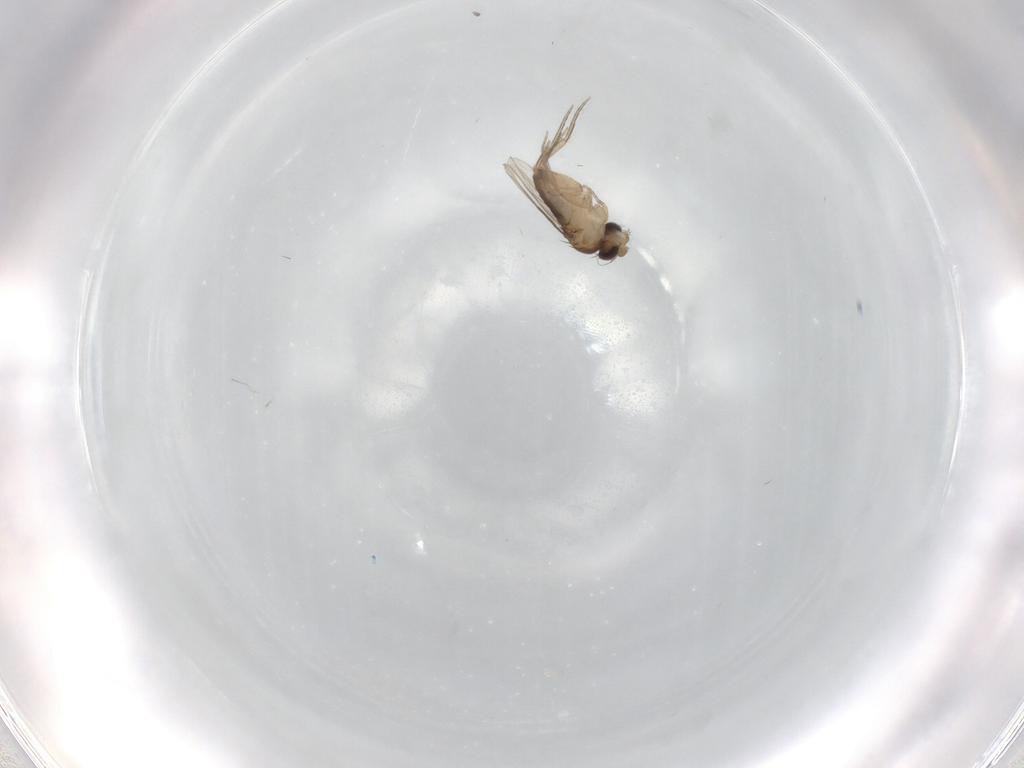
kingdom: Animalia
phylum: Arthropoda
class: Insecta
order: Diptera
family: Phoridae
